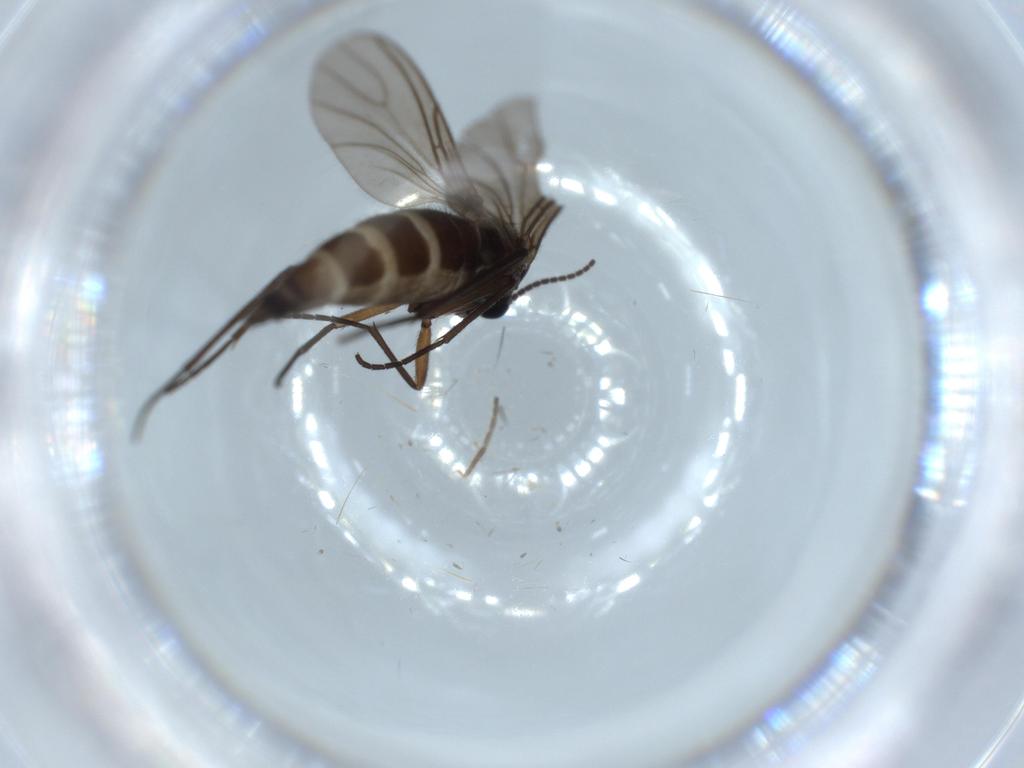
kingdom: Animalia
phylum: Arthropoda
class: Insecta
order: Diptera
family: Sciaridae
